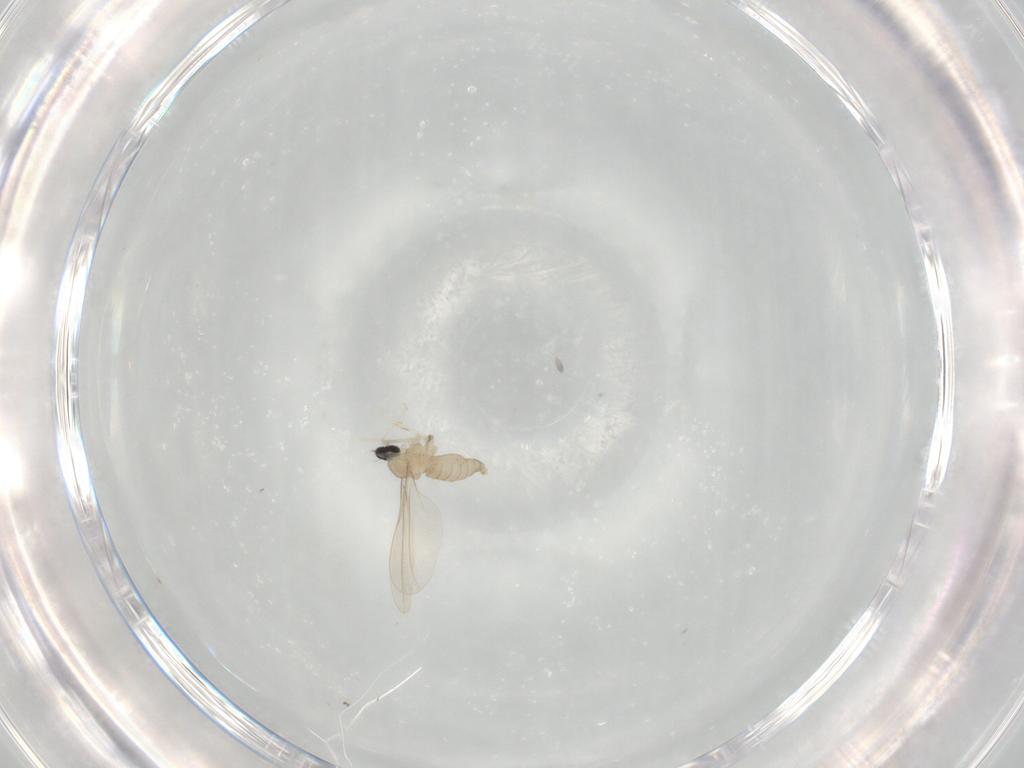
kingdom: Animalia
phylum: Arthropoda
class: Insecta
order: Diptera
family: Cecidomyiidae
